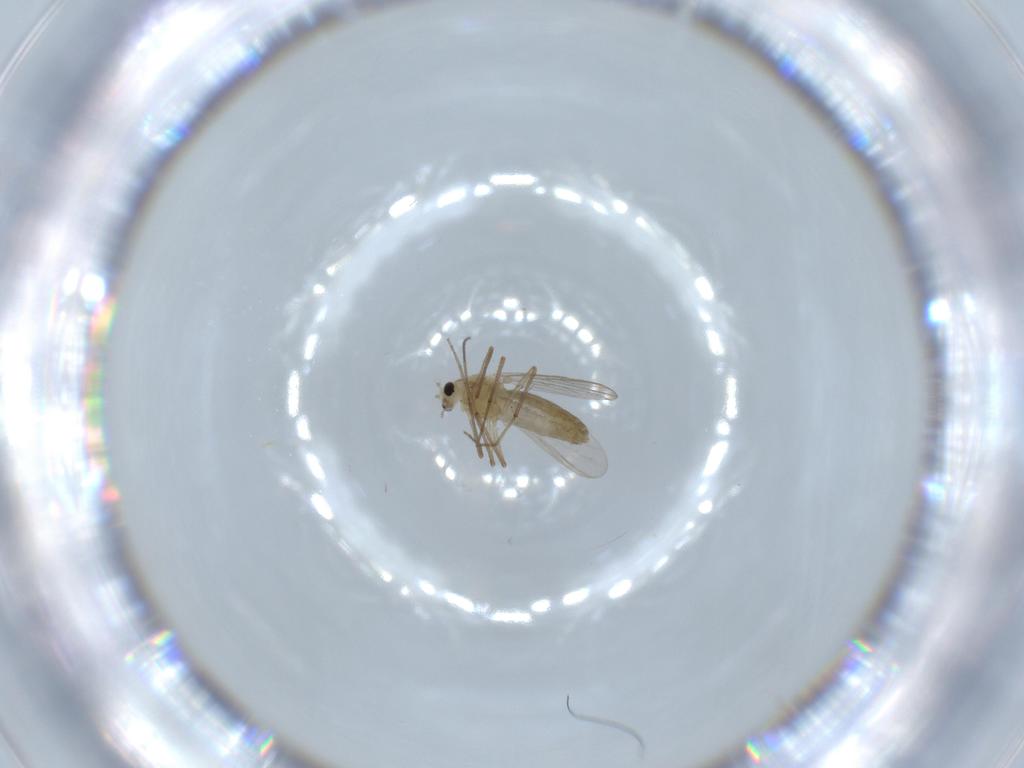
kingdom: Animalia
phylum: Arthropoda
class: Insecta
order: Diptera
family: Chironomidae
